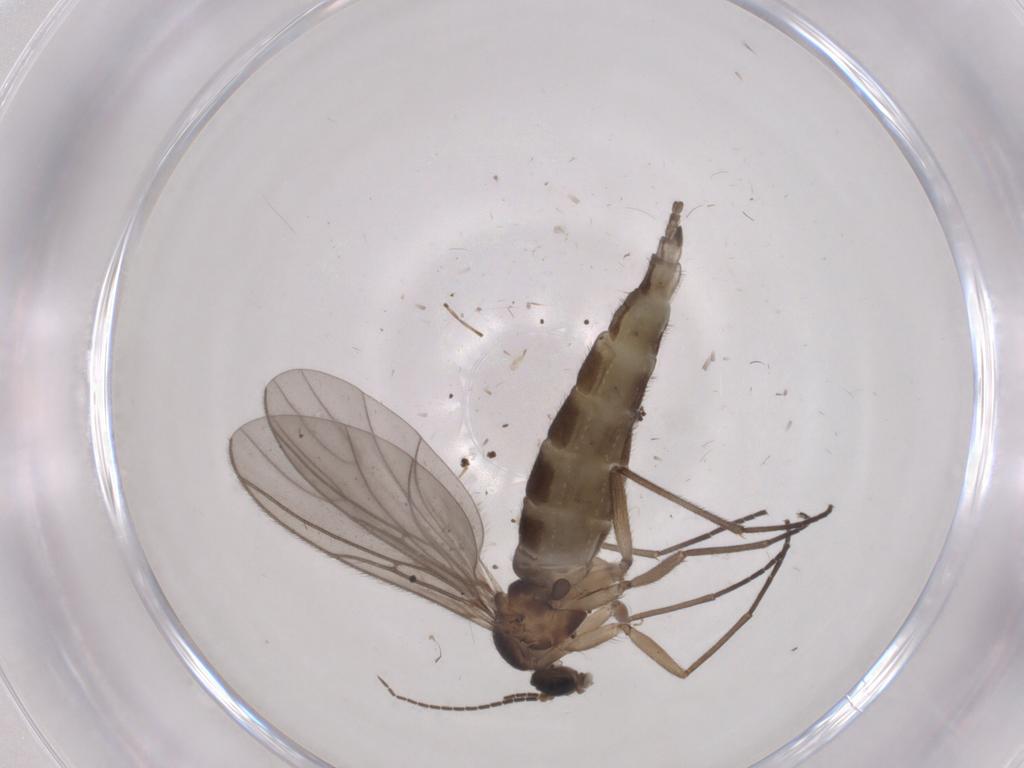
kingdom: Animalia
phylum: Arthropoda
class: Insecta
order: Diptera
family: Ulidiidae
